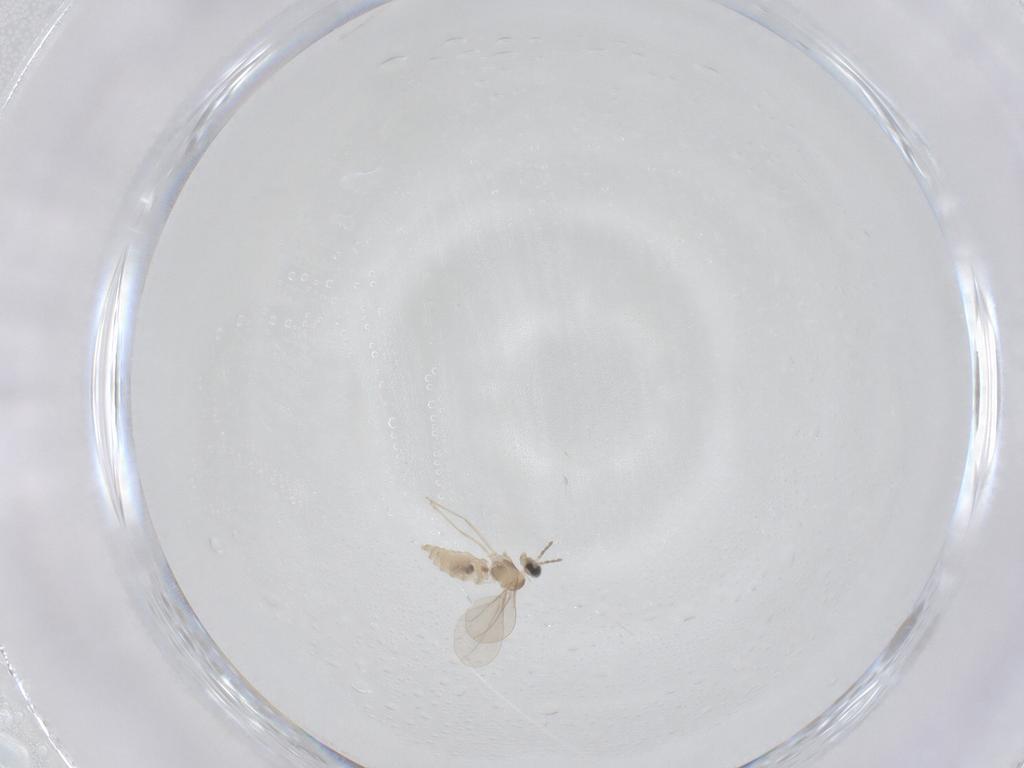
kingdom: Animalia
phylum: Arthropoda
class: Insecta
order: Diptera
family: Cecidomyiidae
